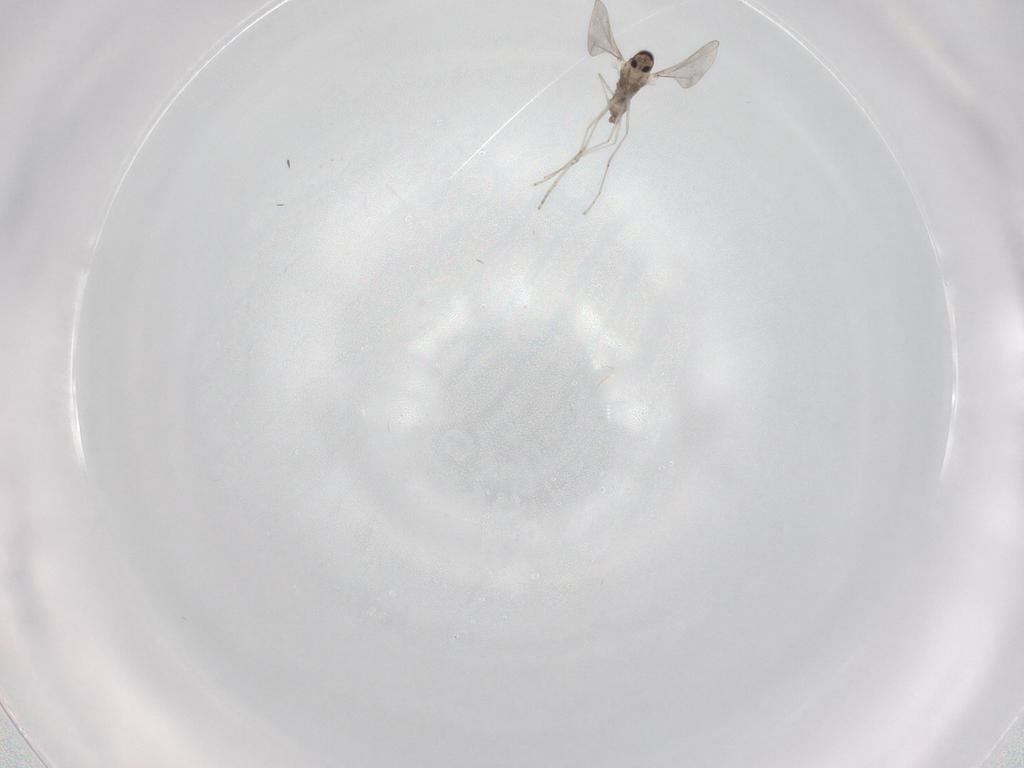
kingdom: Animalia
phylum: Arthropoda
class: Insecta
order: Diptera
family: Cecidomyiidae
